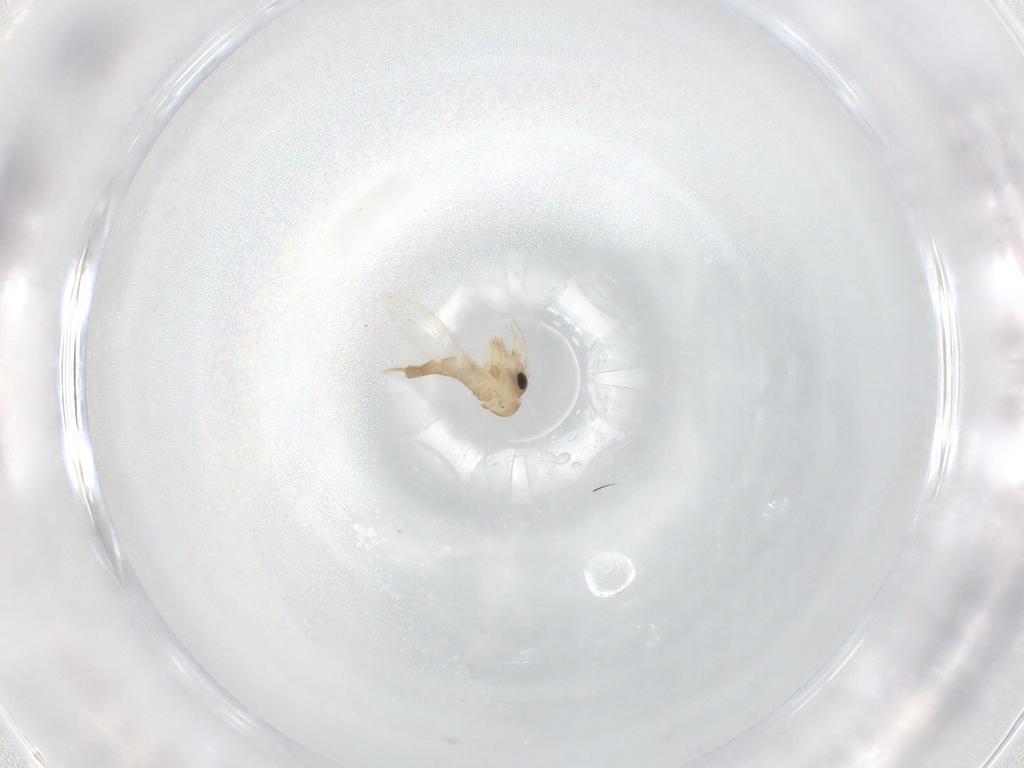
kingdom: Animalia
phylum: Arthropoda
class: Insecta
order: Diptera
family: Psychodidae
